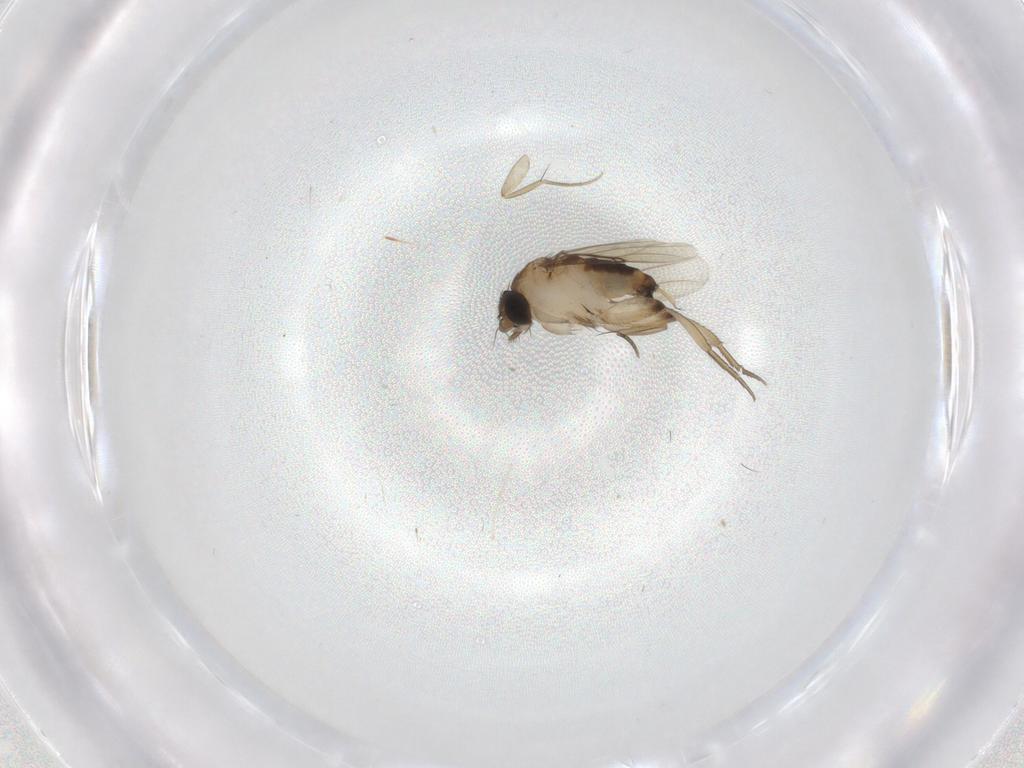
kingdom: Animalia
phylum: Arthropoda
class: Insecta
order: Diptera
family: Phoridae
